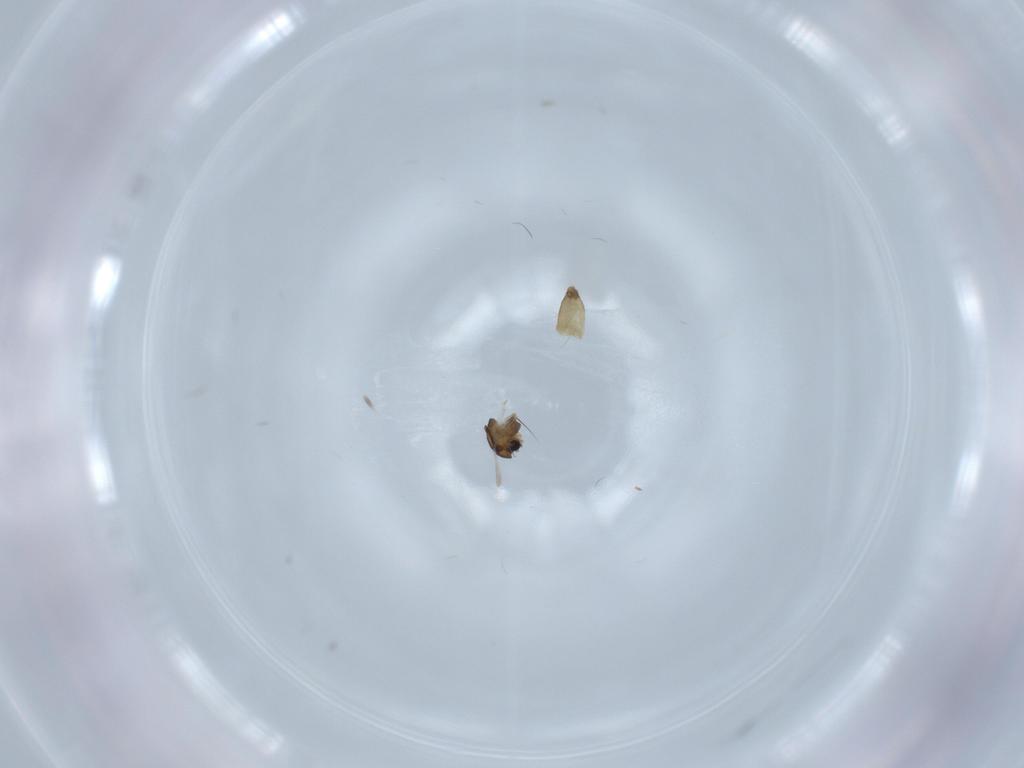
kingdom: Animalia
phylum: Arthropoda
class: Insecta
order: Diptera
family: Chironomidae
